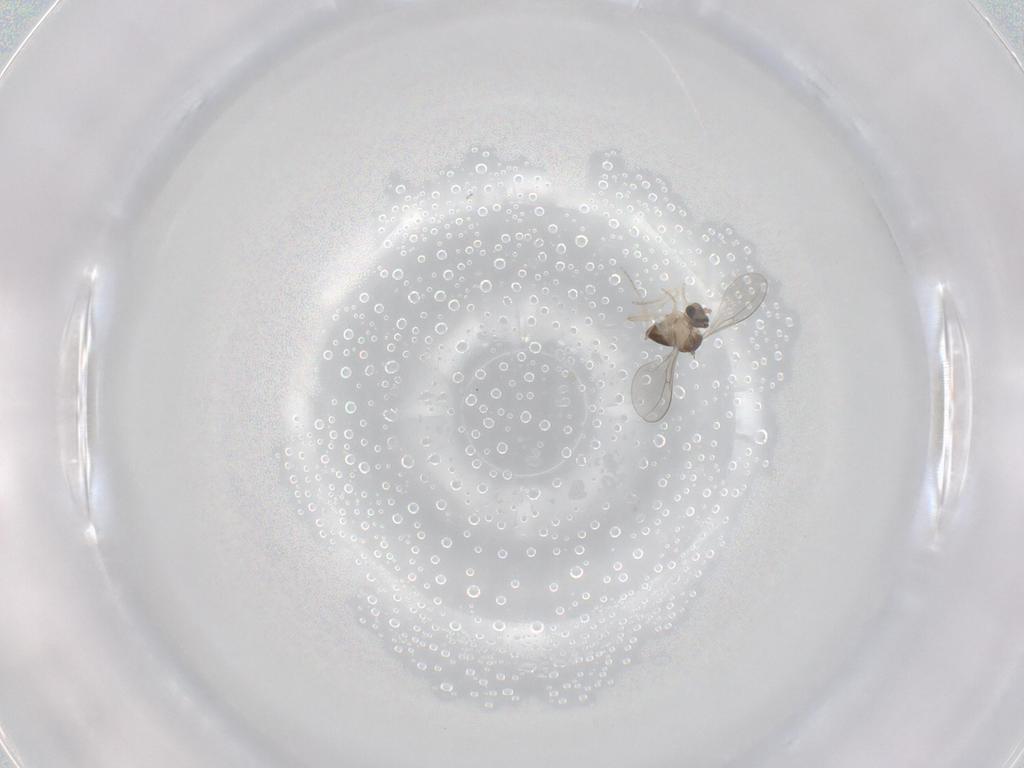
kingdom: Animalia
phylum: Arthropoda
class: Insecta
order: Diptera
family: Cecidomyiidae
